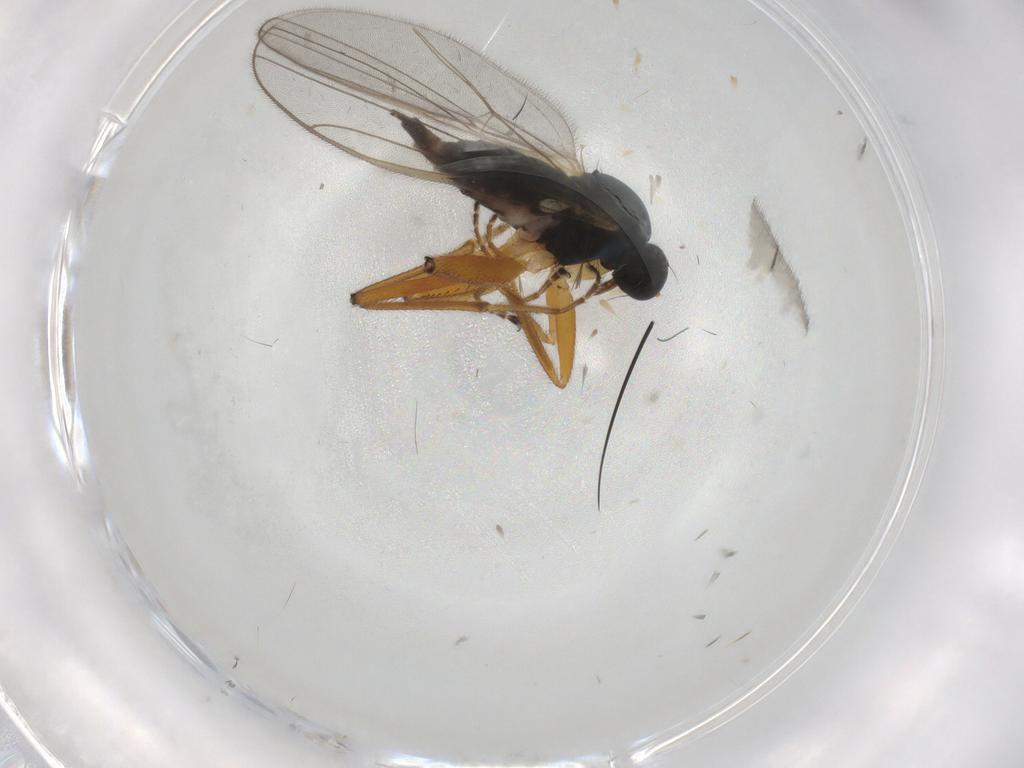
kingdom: Animalia
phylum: Arthropoda
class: Insecta
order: Diptera
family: Hybotidae
